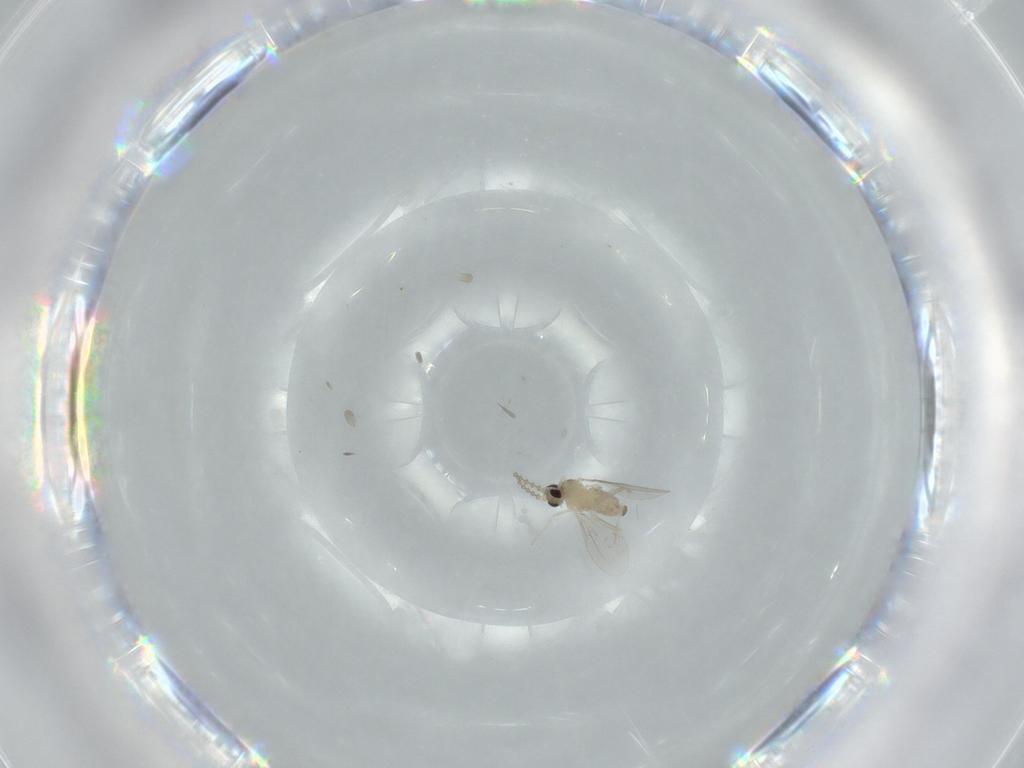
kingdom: Animalia
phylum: Arthropoda
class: Insecta
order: Diptera
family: Cecidomyiidae
